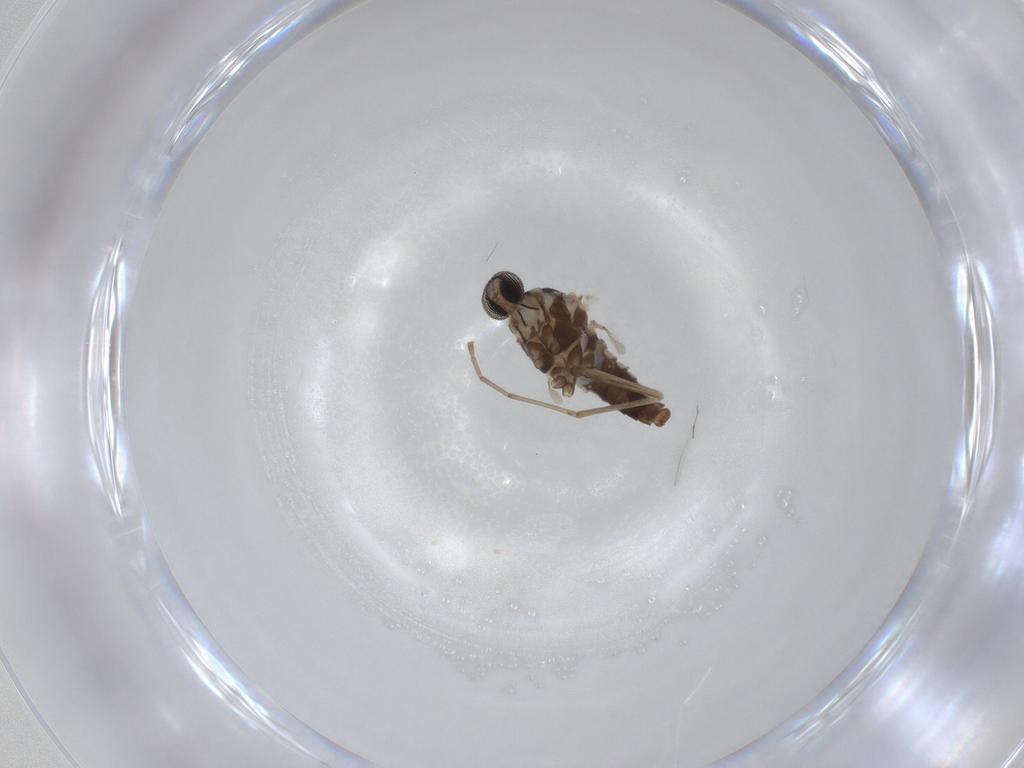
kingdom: Animalia
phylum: Arthropoda
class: Insecta
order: Diptera
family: Cecidomyiidae
